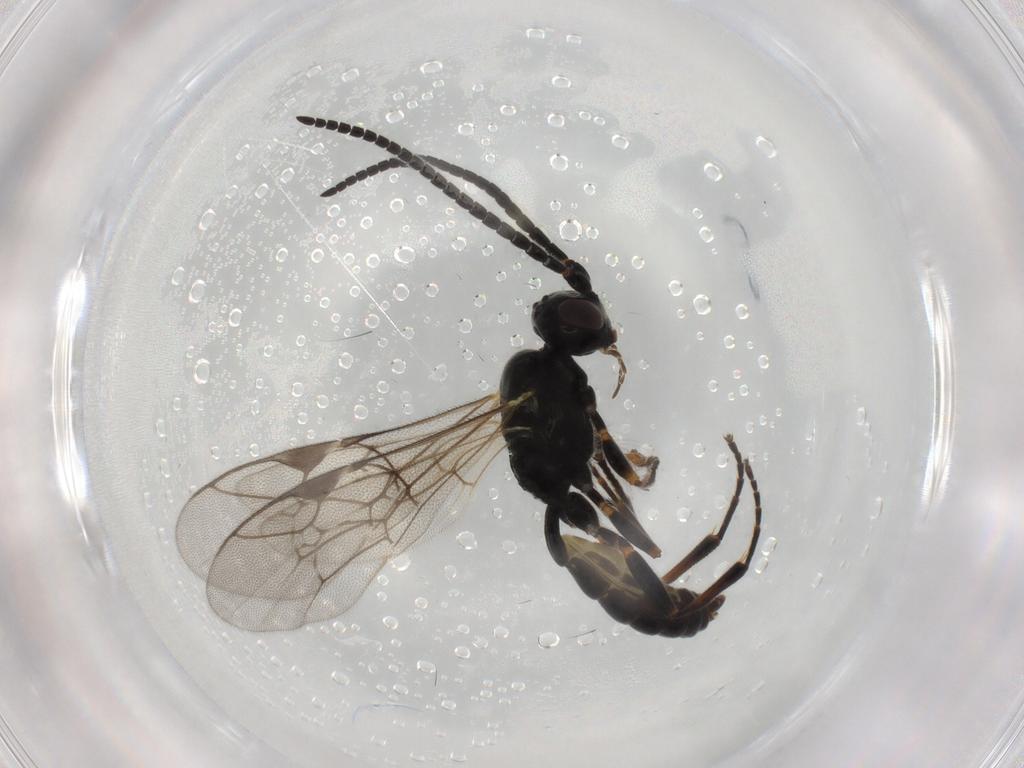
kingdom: Animalia
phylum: Arthropoda
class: Insecta
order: Hymenoptera
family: Ichneumonidae
